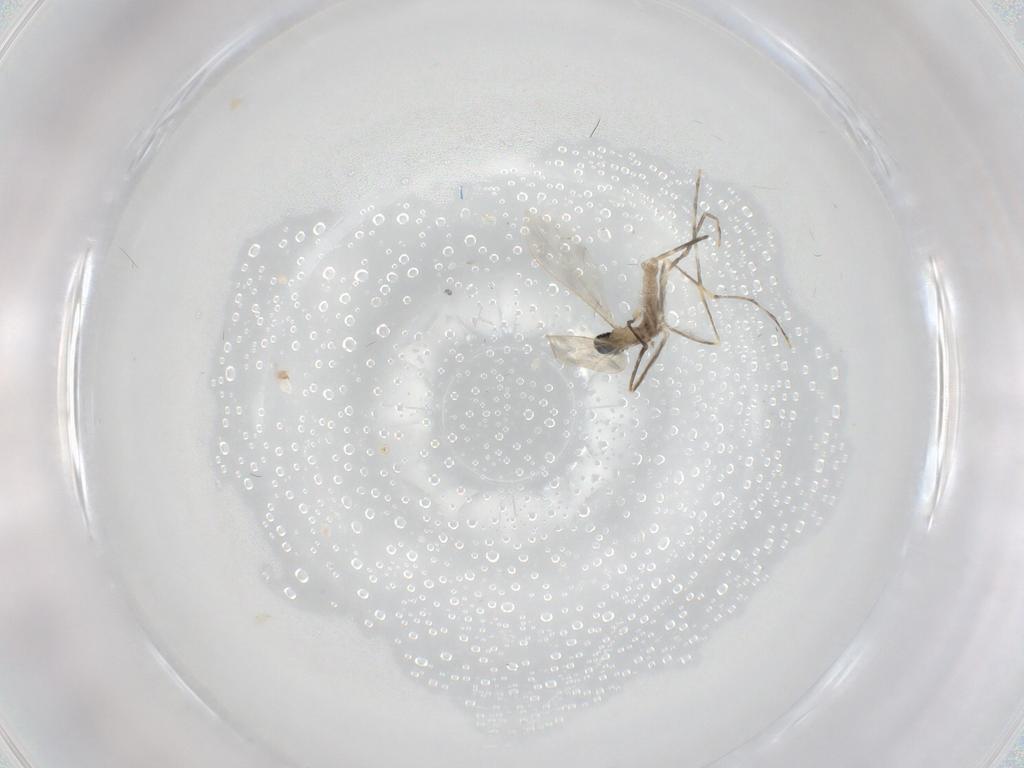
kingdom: Animalia
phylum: Arthropoda
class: Insecta
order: Diptera
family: Cecidomyiidae
